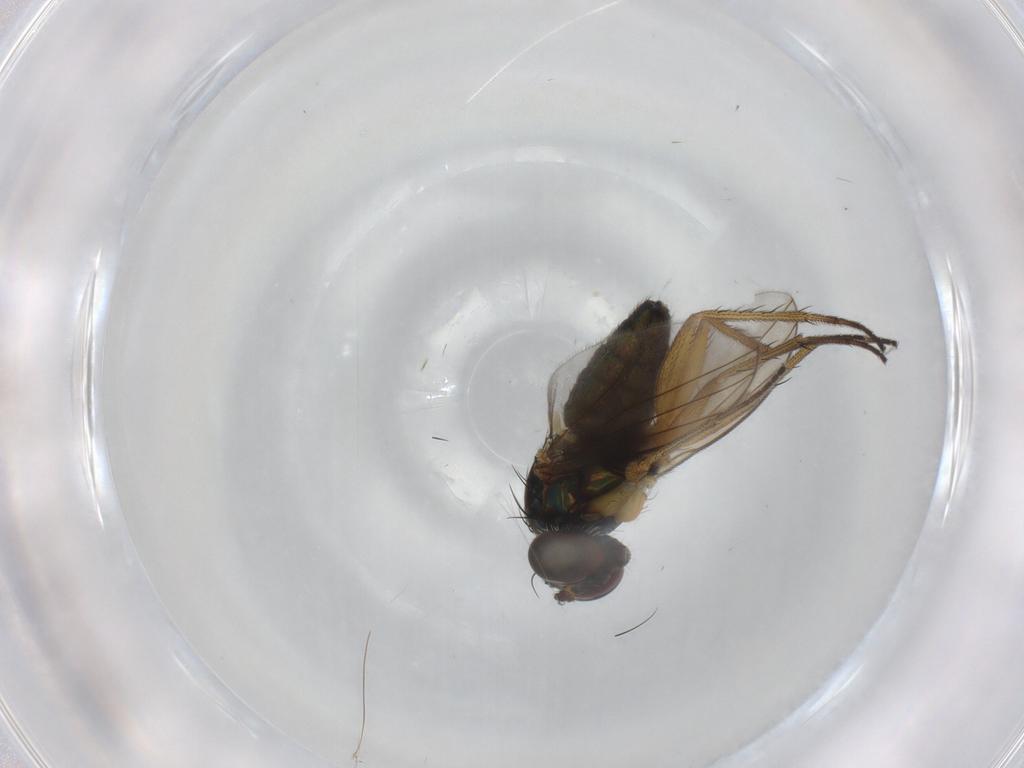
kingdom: Animalia
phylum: Arthropoda
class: Insecta
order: Diptera
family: Dolichopodidae
